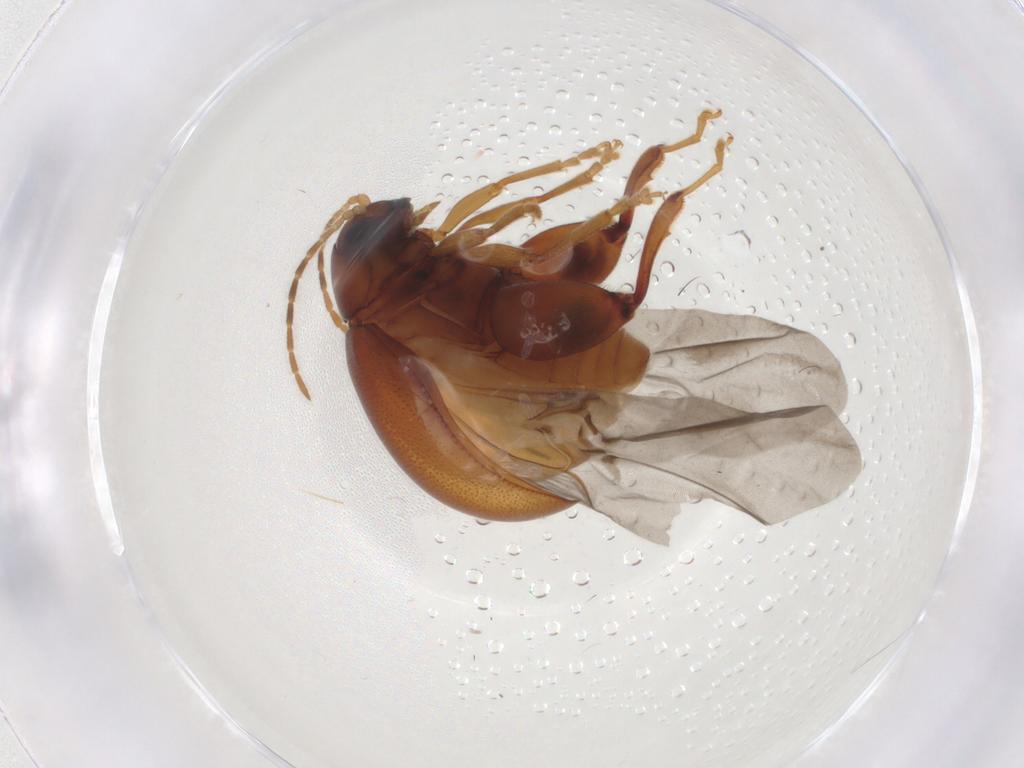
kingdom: Animalia
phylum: Arthropoda
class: Insecta
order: Coleoptera
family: Chrysomelidae
